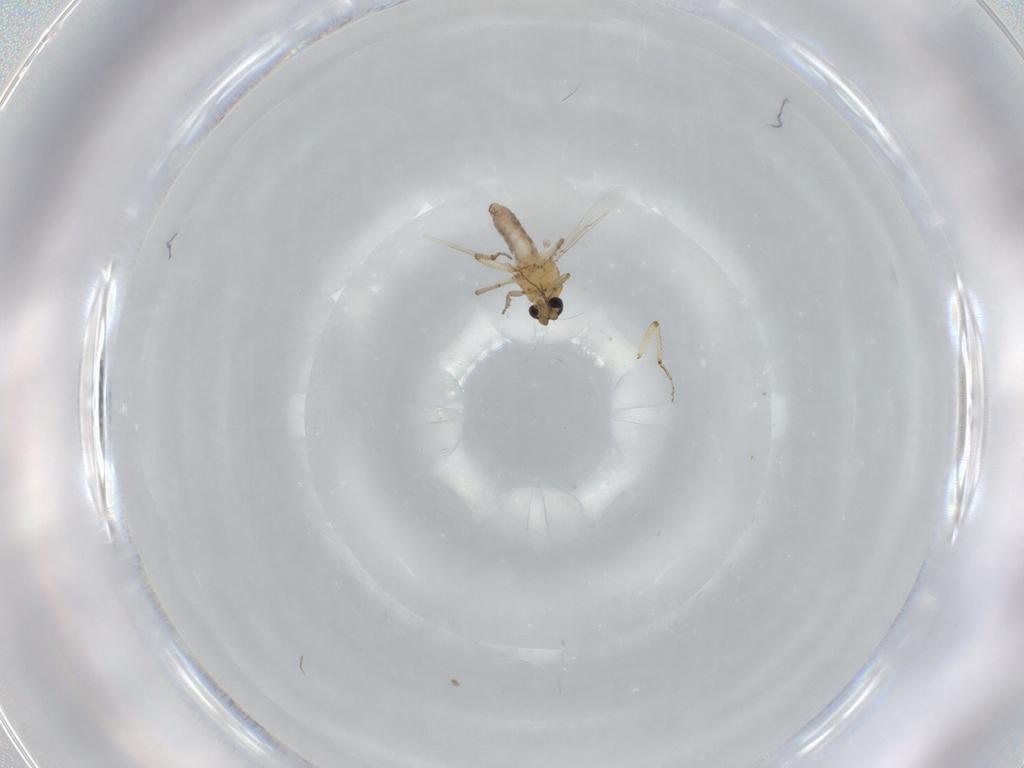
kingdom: Animalia
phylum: Arthropoda
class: Insecta
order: Diptera
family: Ceratopogonidae
